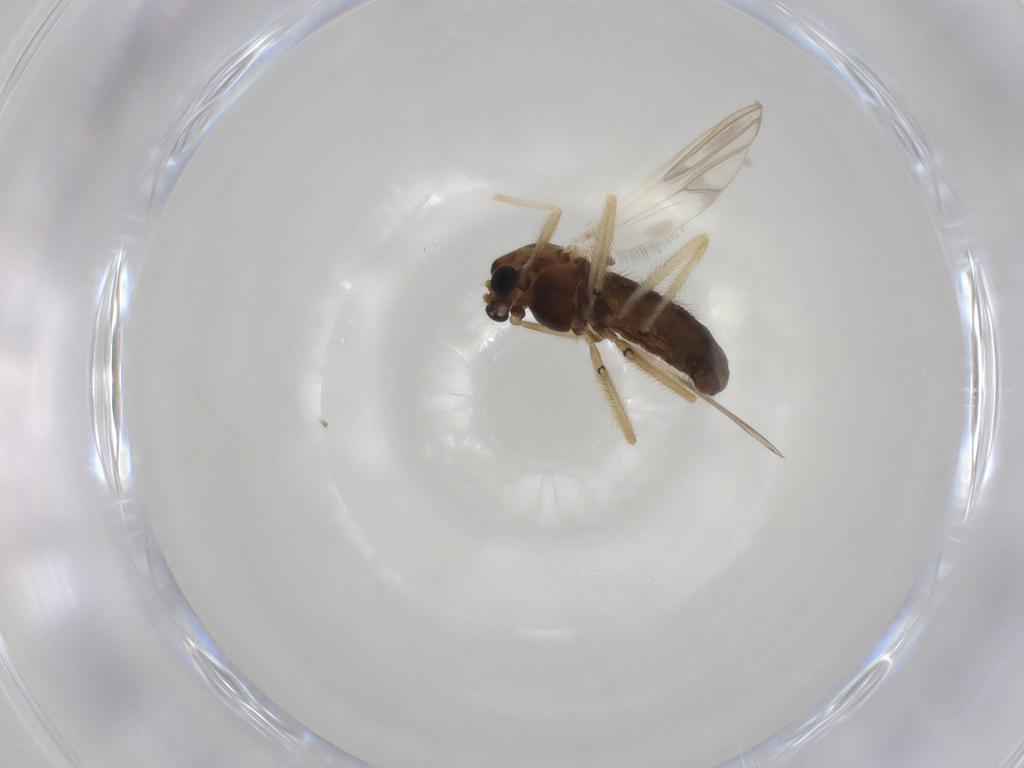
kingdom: Animalia
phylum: Arthropoda
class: Insecta
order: Diptera
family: Chironomidae
